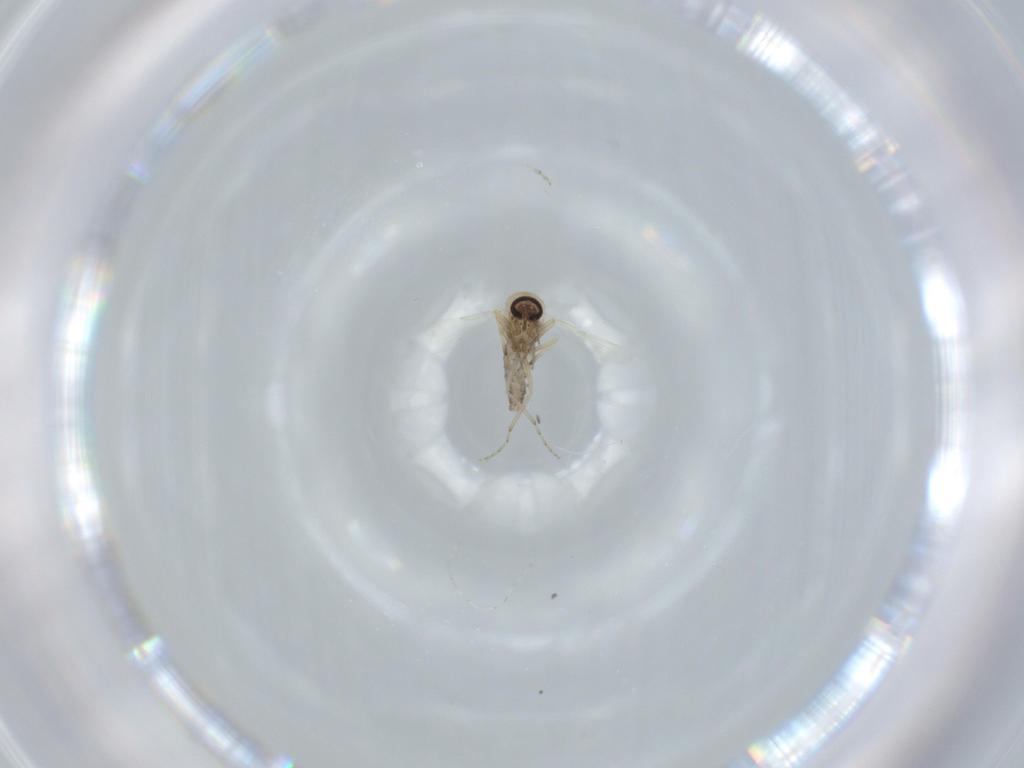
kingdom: Animalia
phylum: Arthropoda
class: Insecta
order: Diptera
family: Ceratopogonidae
